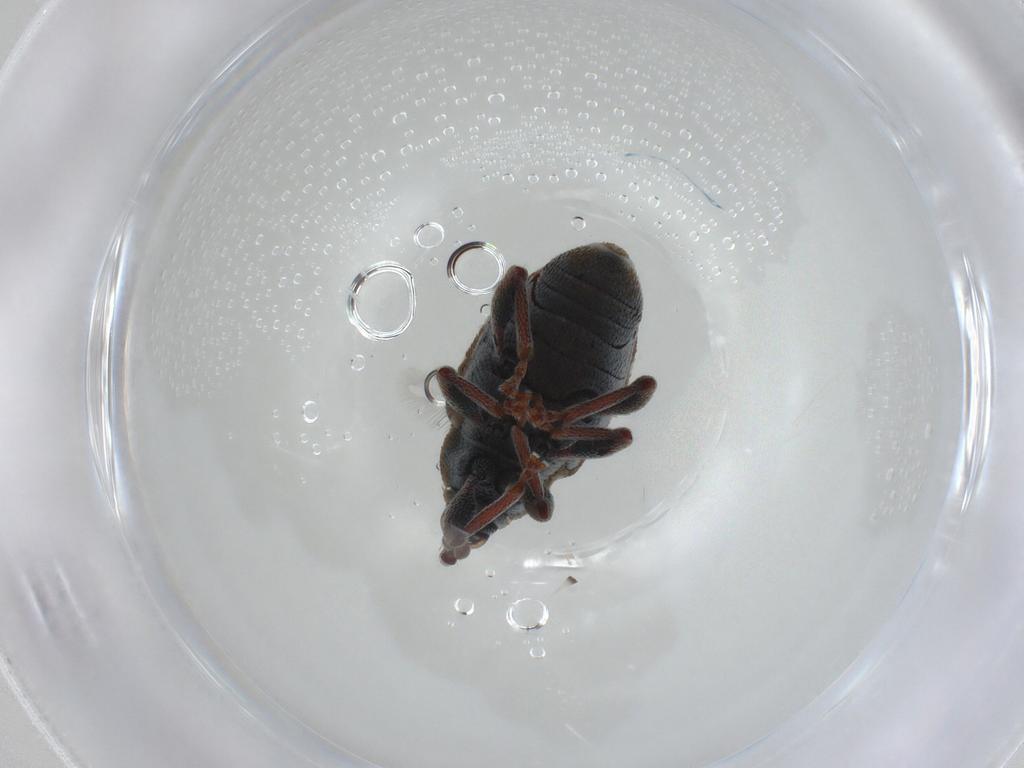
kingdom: Animalia
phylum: Arthropoda
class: Insecta
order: Coleoptera
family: Curculionidae
